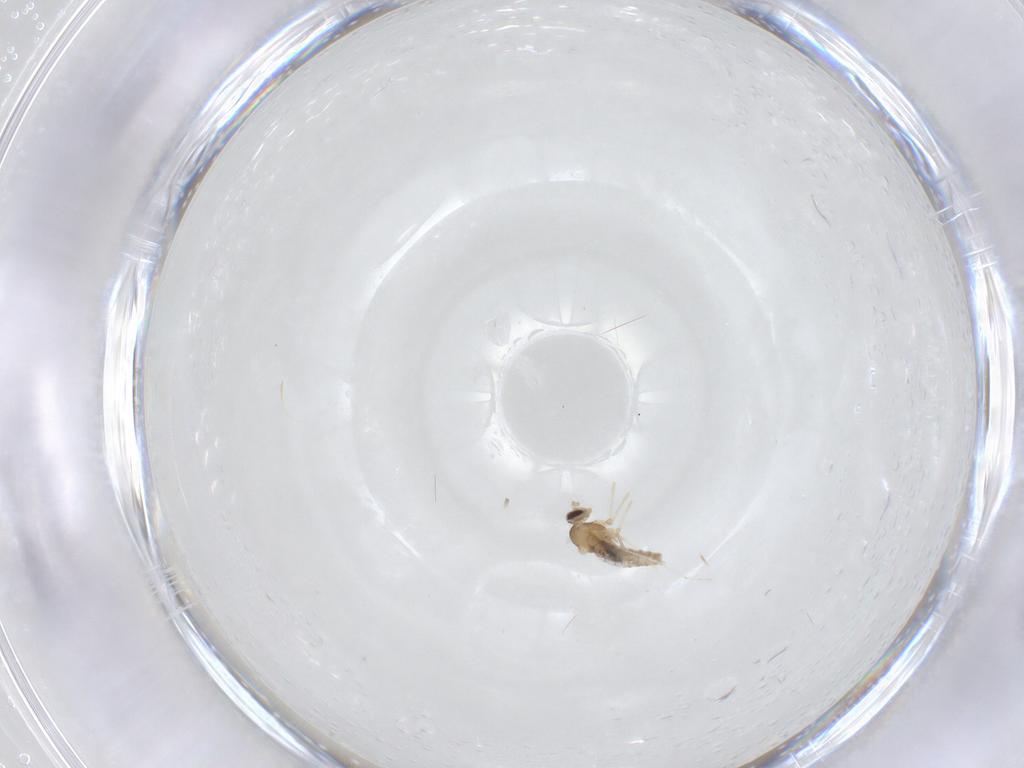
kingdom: Animalia
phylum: Arthropoda
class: Insecta
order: Diptera
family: Cecidomyiidae
